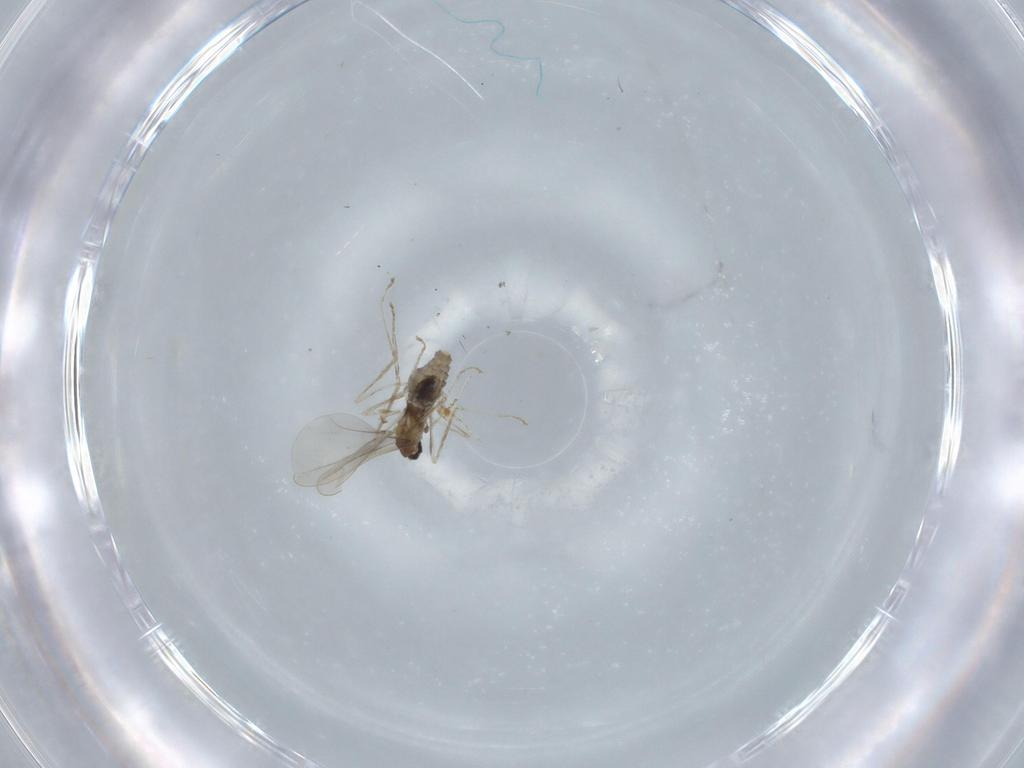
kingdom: Animalia
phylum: Arthropoda
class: Insecta
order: Diptera
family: Cecidomyiidae
